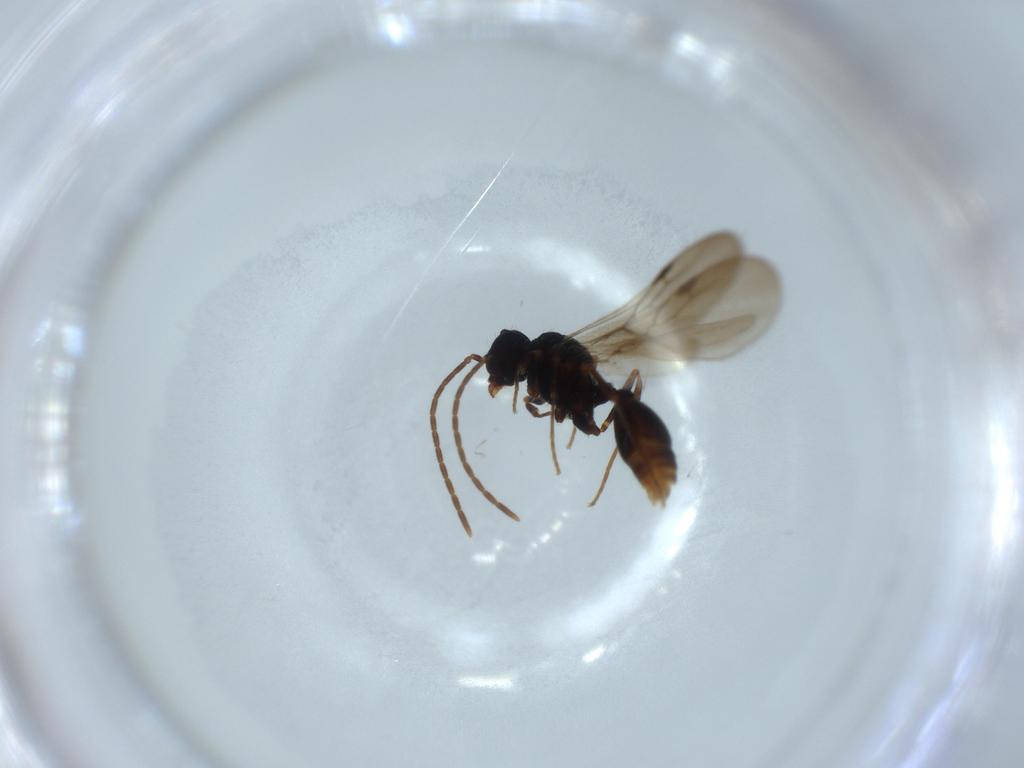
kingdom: Animalia
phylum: Arthropoda
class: Insecta
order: Hymenoptera
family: Formicidae
